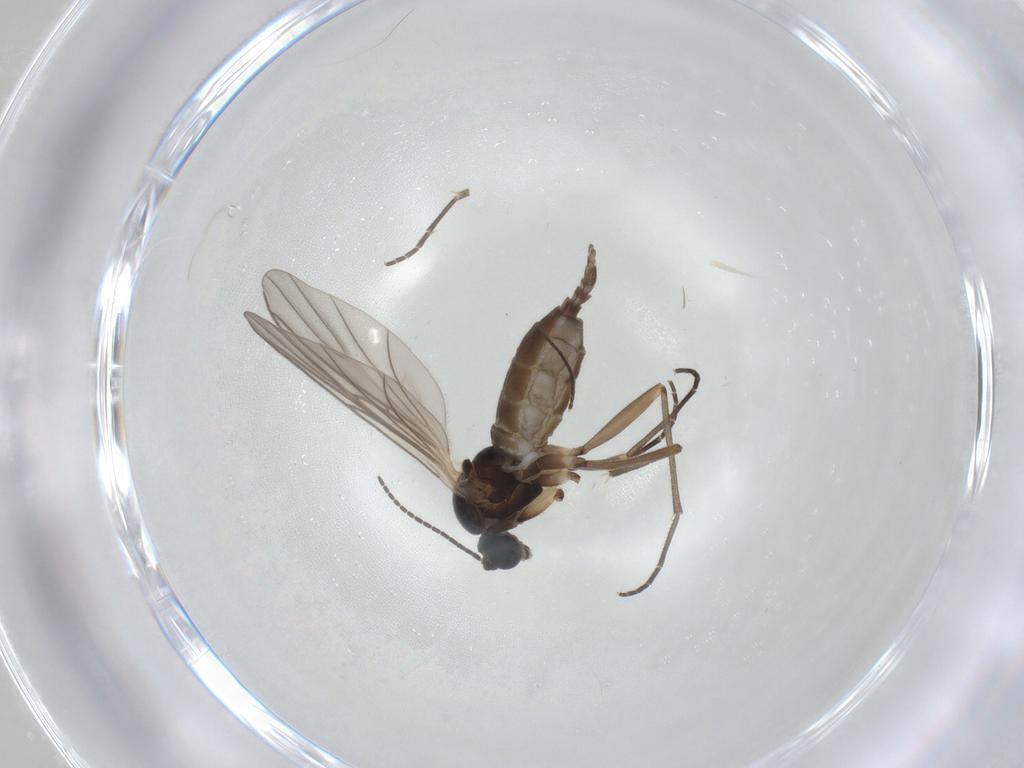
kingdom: Animalia
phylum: Arthropoda
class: Insecta
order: Diptera
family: Sciaridae
